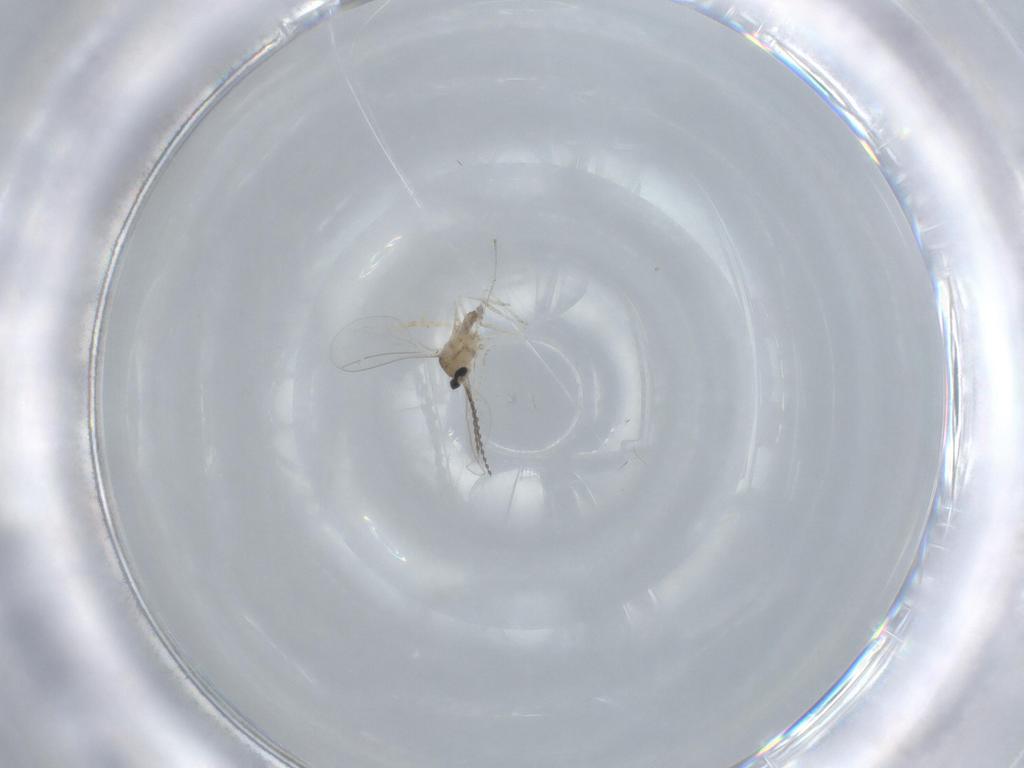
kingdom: Animalia
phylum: Arthropoda
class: Insecta
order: Diptera
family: Cecidomyiidae
